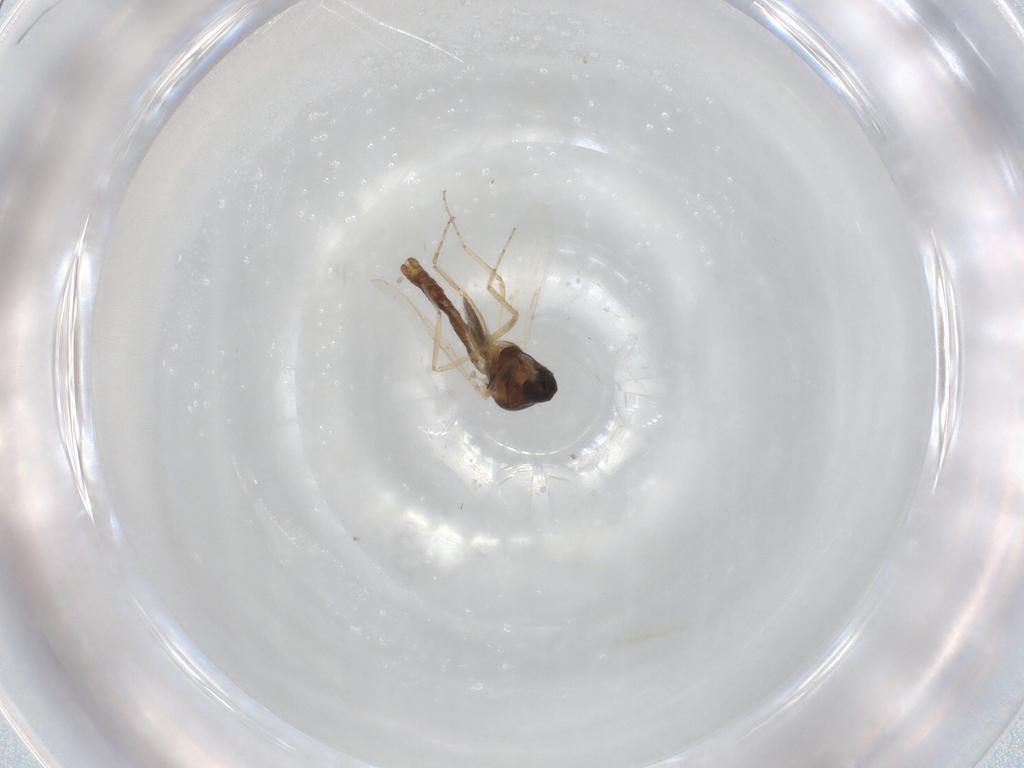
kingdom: Animalia
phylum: Arthropoda
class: Insecta
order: Diptera
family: Ceratopogonidae
